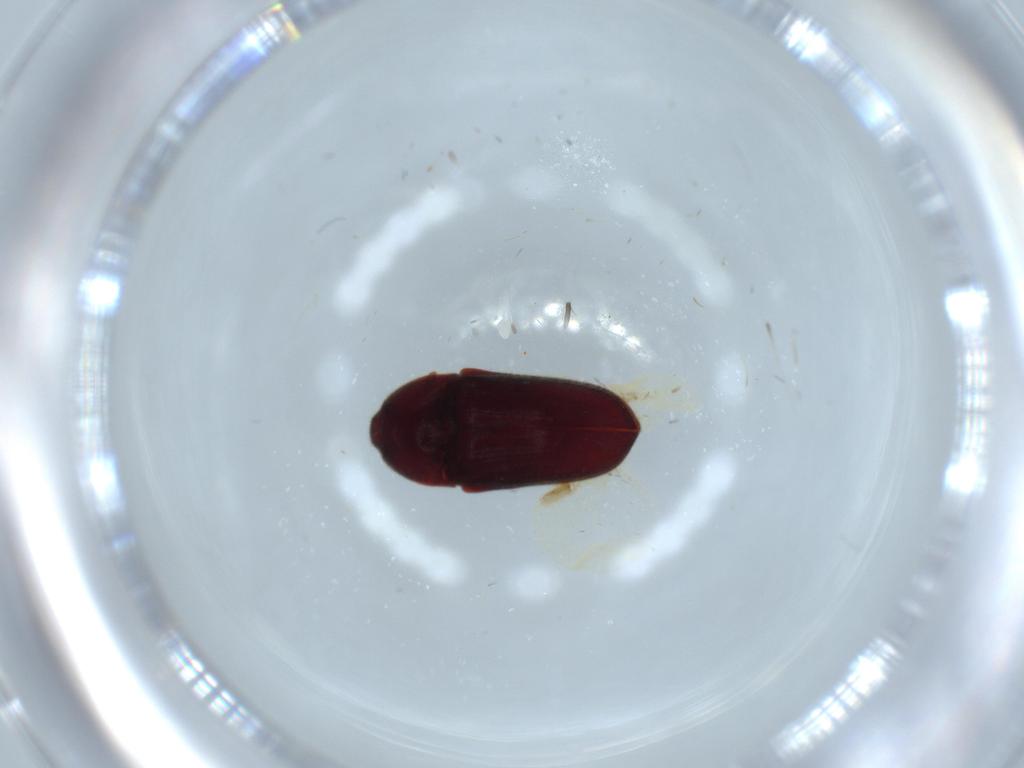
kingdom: Animalia
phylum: Arthropoda
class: Insecta
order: Coleoptera
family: Throscidae
